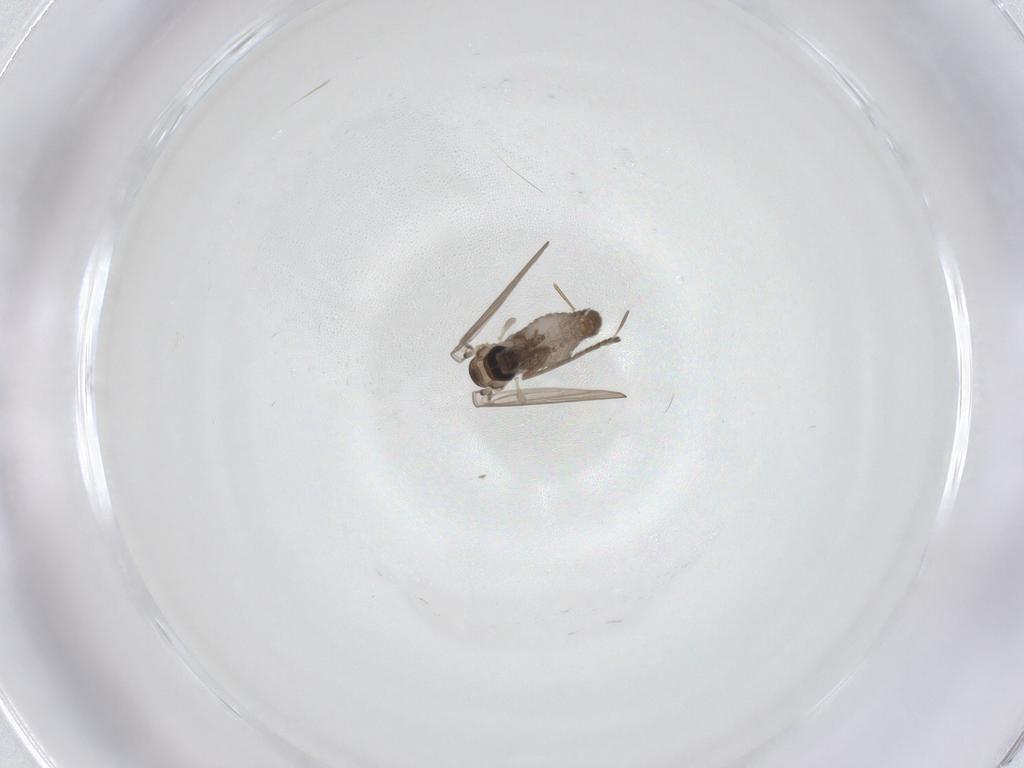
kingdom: Animalia
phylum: Arthropoda
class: Insecta
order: Diptera
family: Psychodidae
